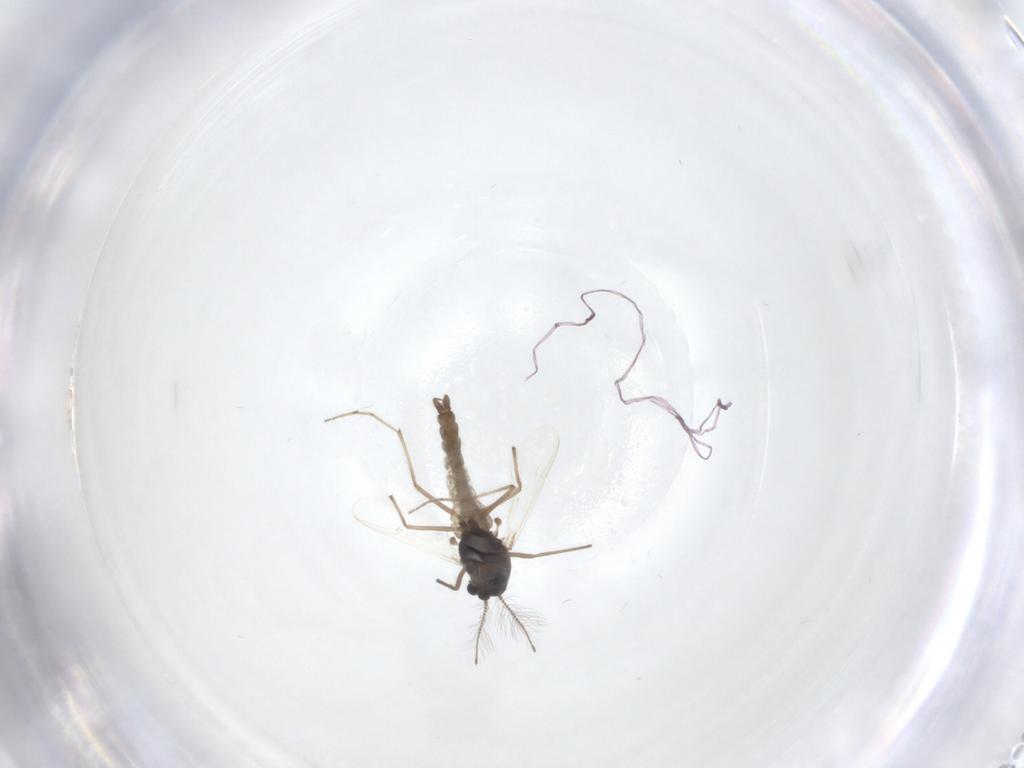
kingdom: Animalia
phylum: Arthropoda
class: Insecta
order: Diptera
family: Chironomidae
